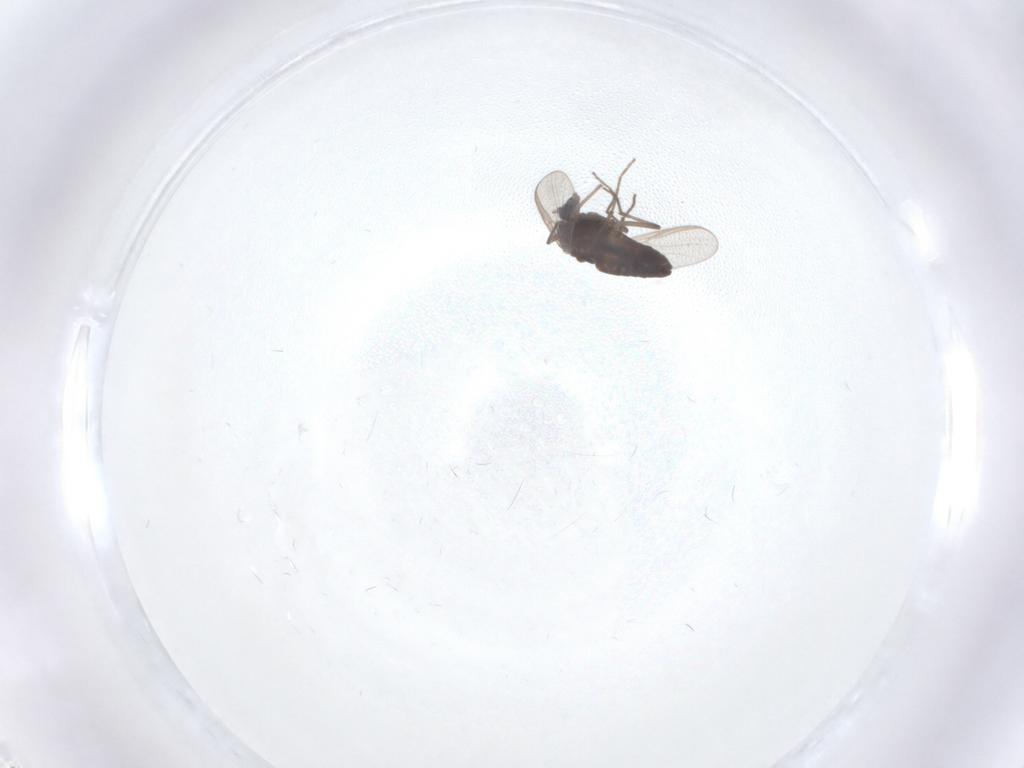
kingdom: Animalia
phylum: Arthropoda
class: Insecta
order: Diptera
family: Chironomidae
